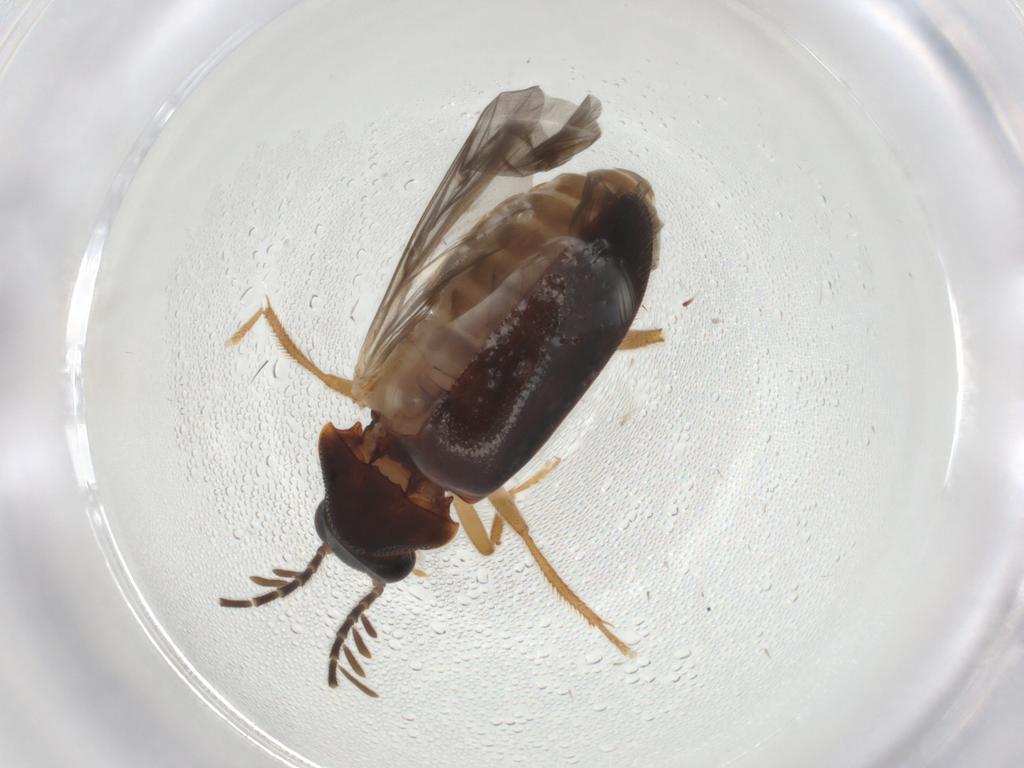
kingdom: Animalia
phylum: Arthropoda
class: Insecta
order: Coleoptera
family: Ptilodactylidae
